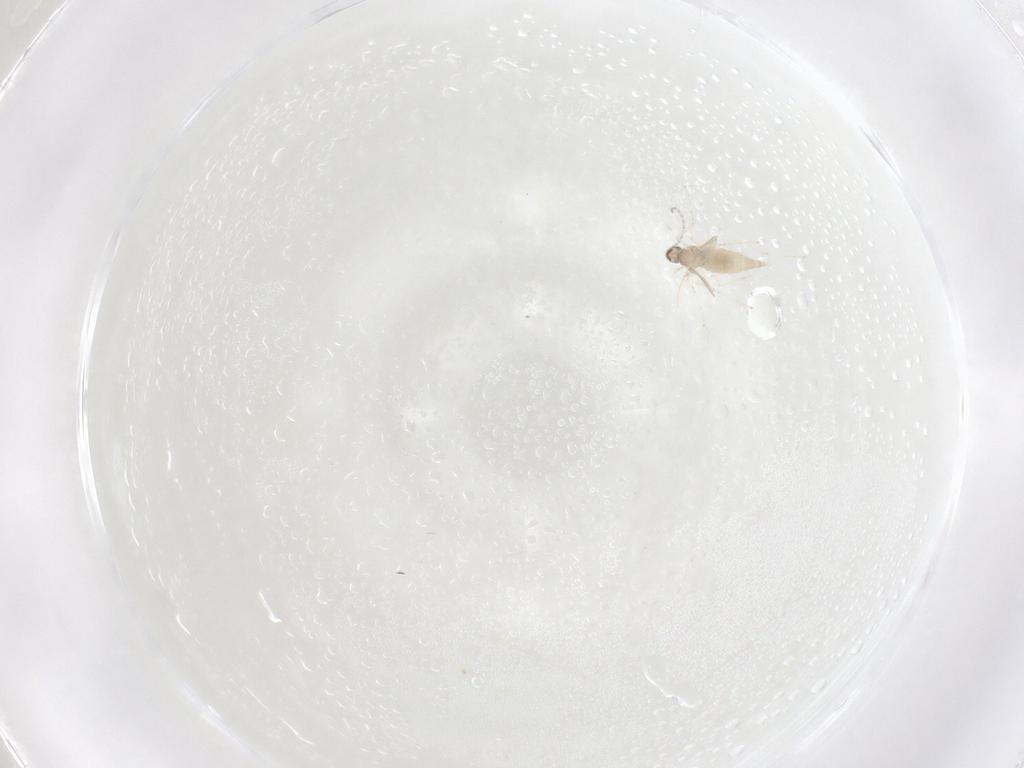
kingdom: Animalia
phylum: Arthropoda
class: Insecta
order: Diptera
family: Cecidomyiidae
